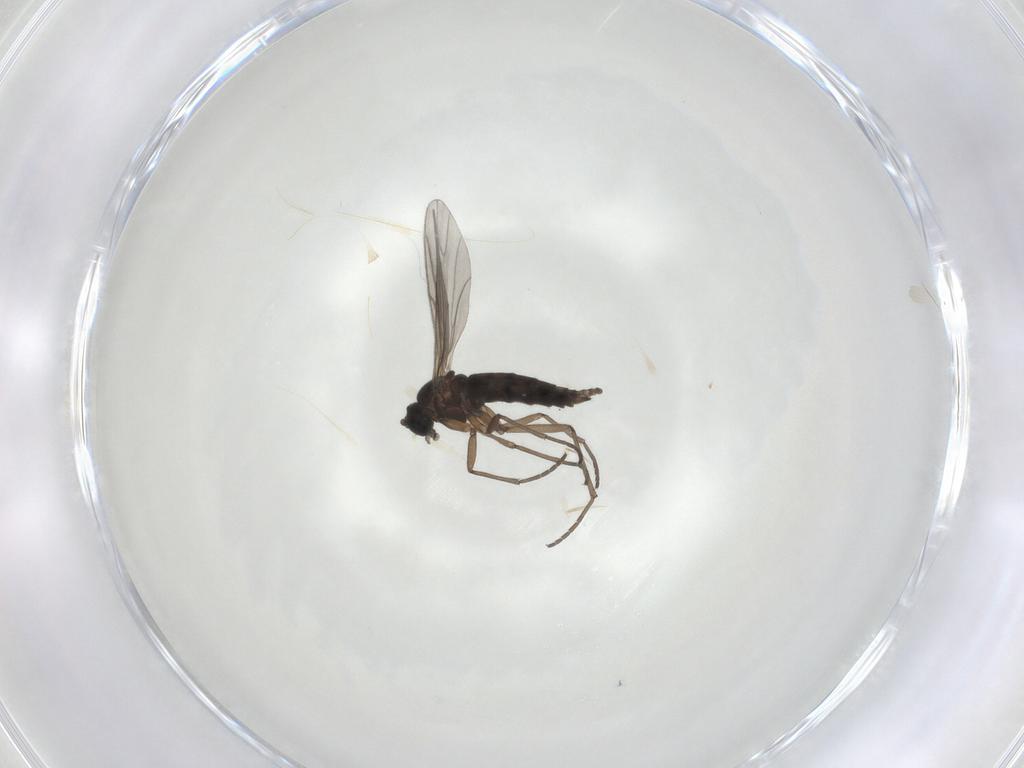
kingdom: Animalia
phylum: Arthropoda
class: Insecta
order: Diptera
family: Sciaridae
